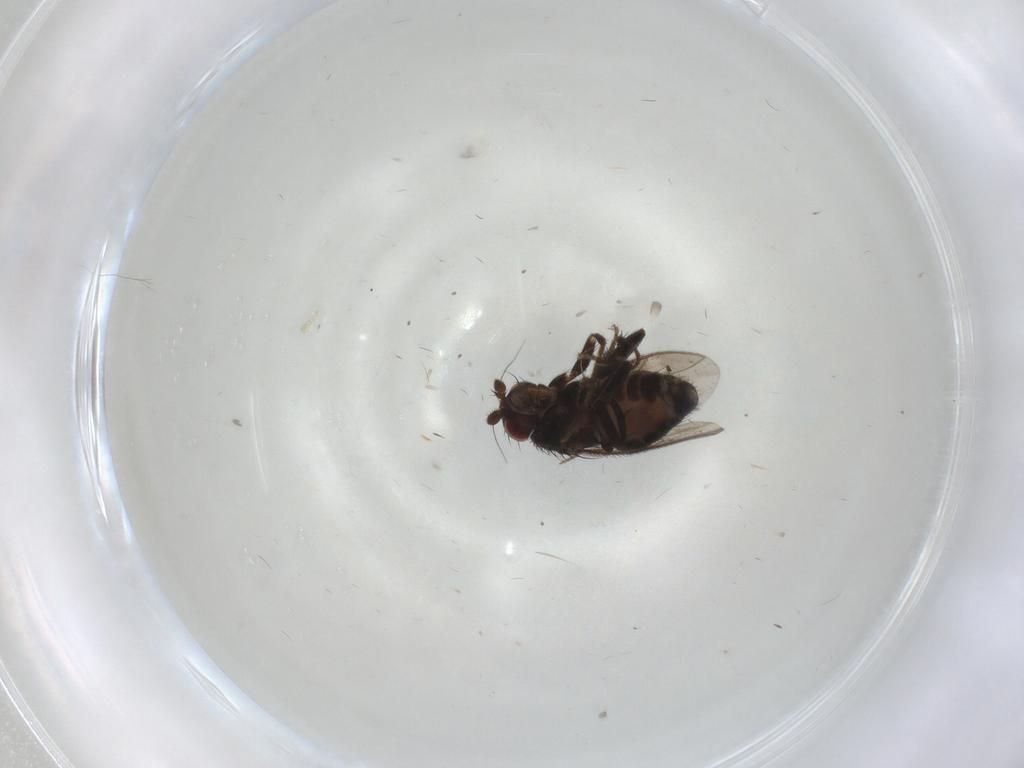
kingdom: Animalia
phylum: Arthropoda
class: Insecta
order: Diptera
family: Sphaeroceridae
